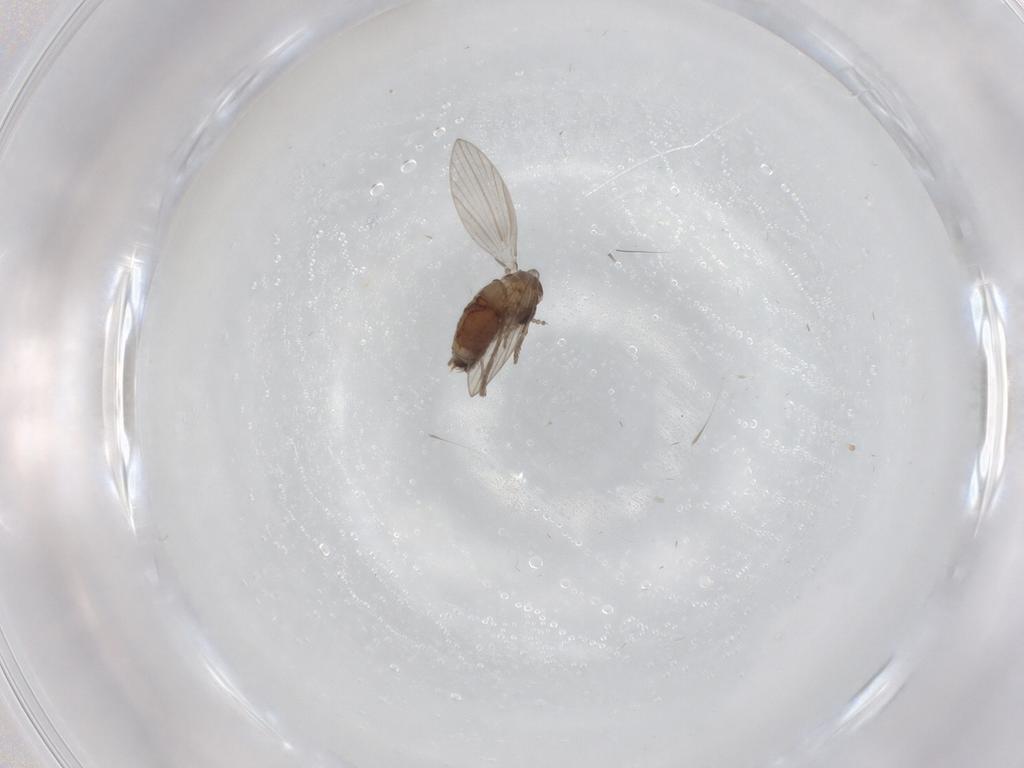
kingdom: Animalia
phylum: Arthropoda
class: Insecta
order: Diptera
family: Psychodidae
